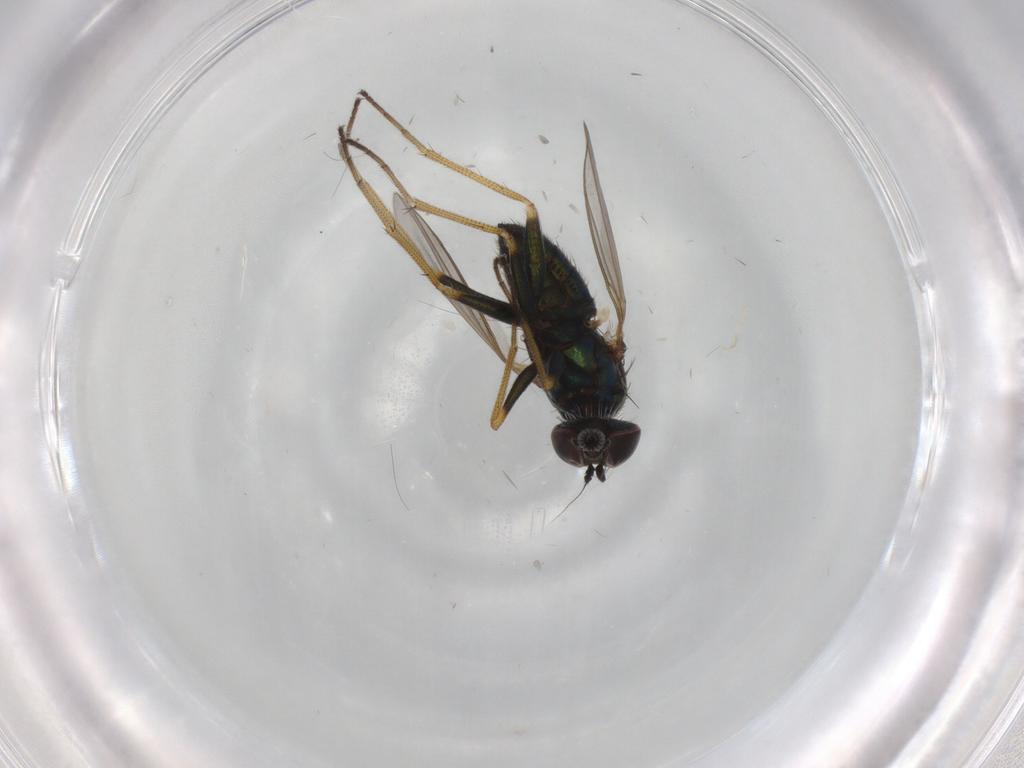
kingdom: Animalia
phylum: Arthropoda
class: Insecta
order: Diptera
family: Dolichopodidae
